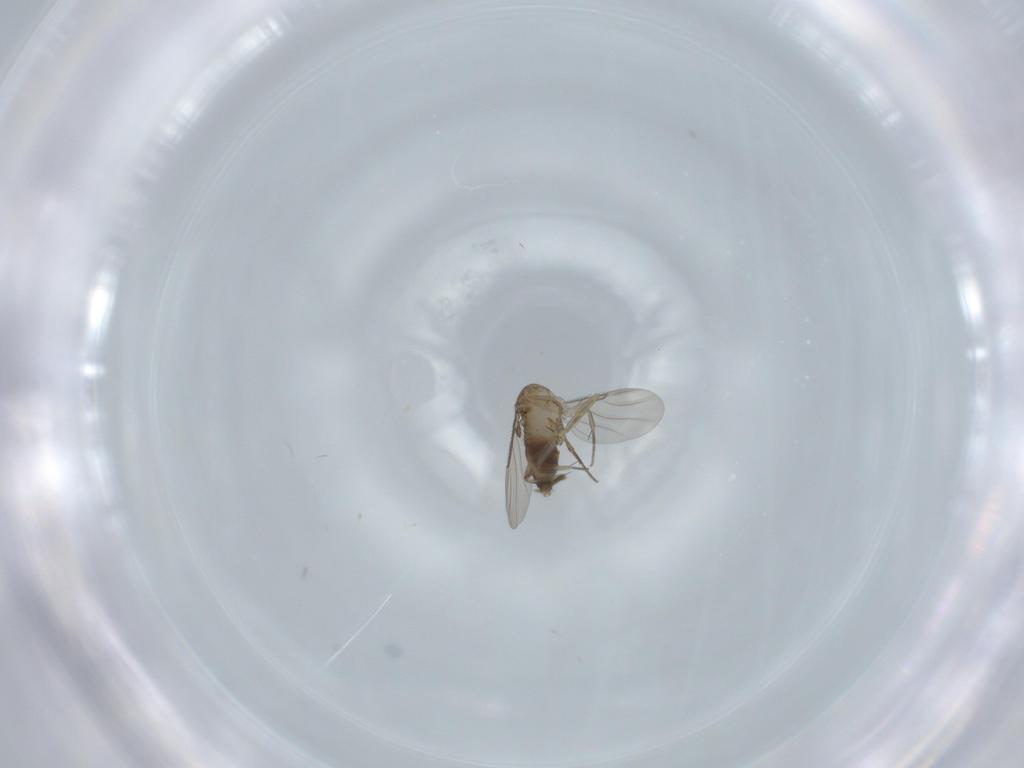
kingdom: Animalia
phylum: Arthropoda
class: Insecta
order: Diptera
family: Phoridae
